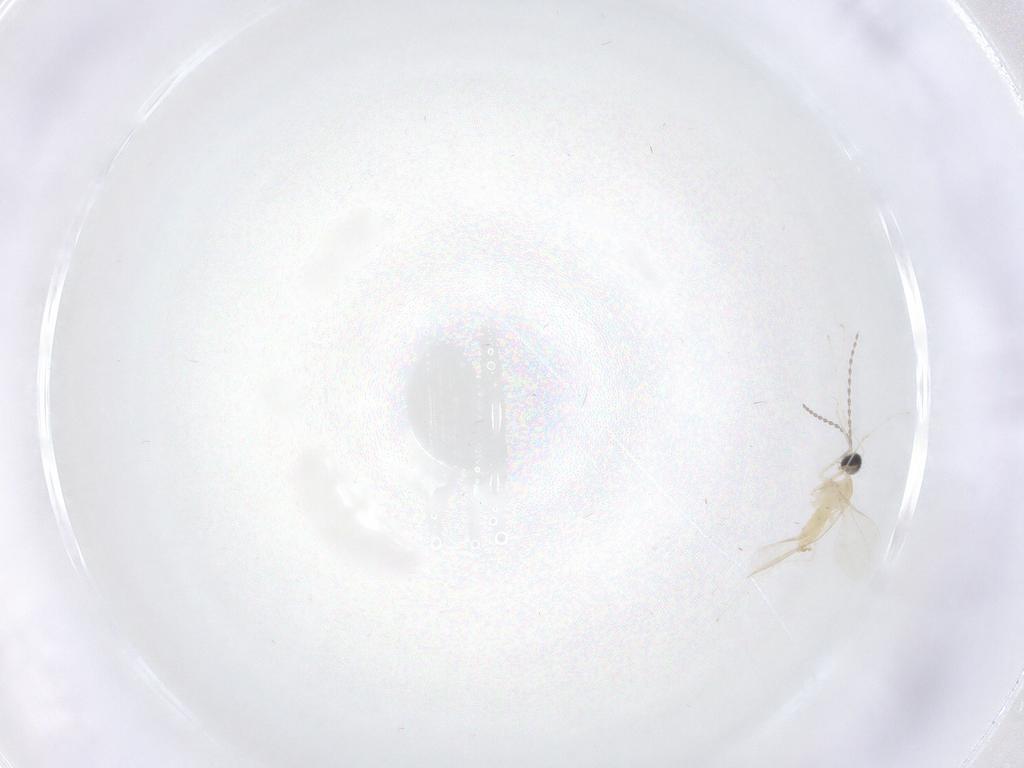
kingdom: Animalia
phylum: Arthropoda
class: Insecta
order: Diptera
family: Cecidomyiidae
